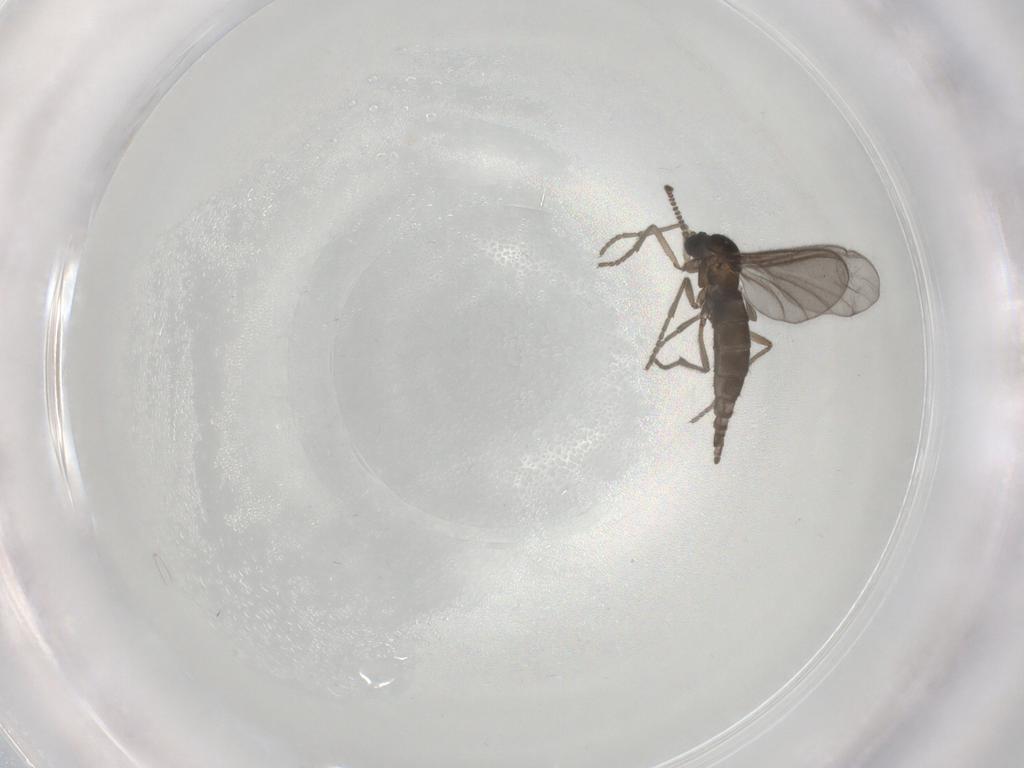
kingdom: Animalia
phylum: Arthropoda
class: Insecta
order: Diptera
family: Sciaridae
